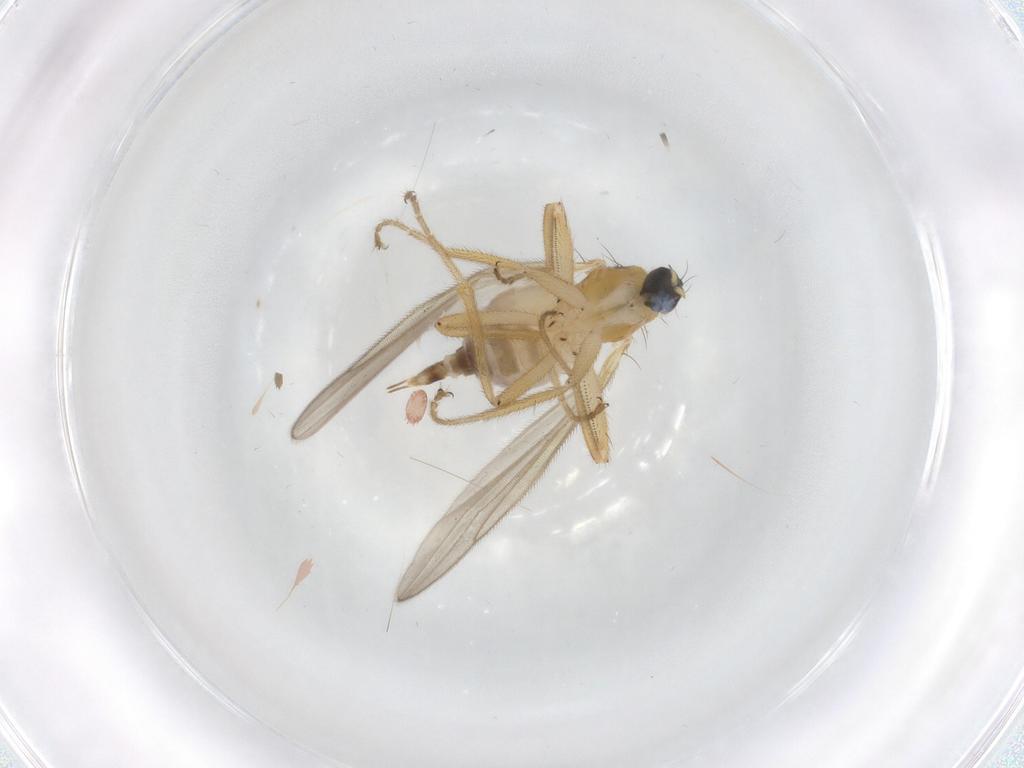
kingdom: Animalia
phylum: Arthropoda
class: Insecta
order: Diptera
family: Hybotidae
